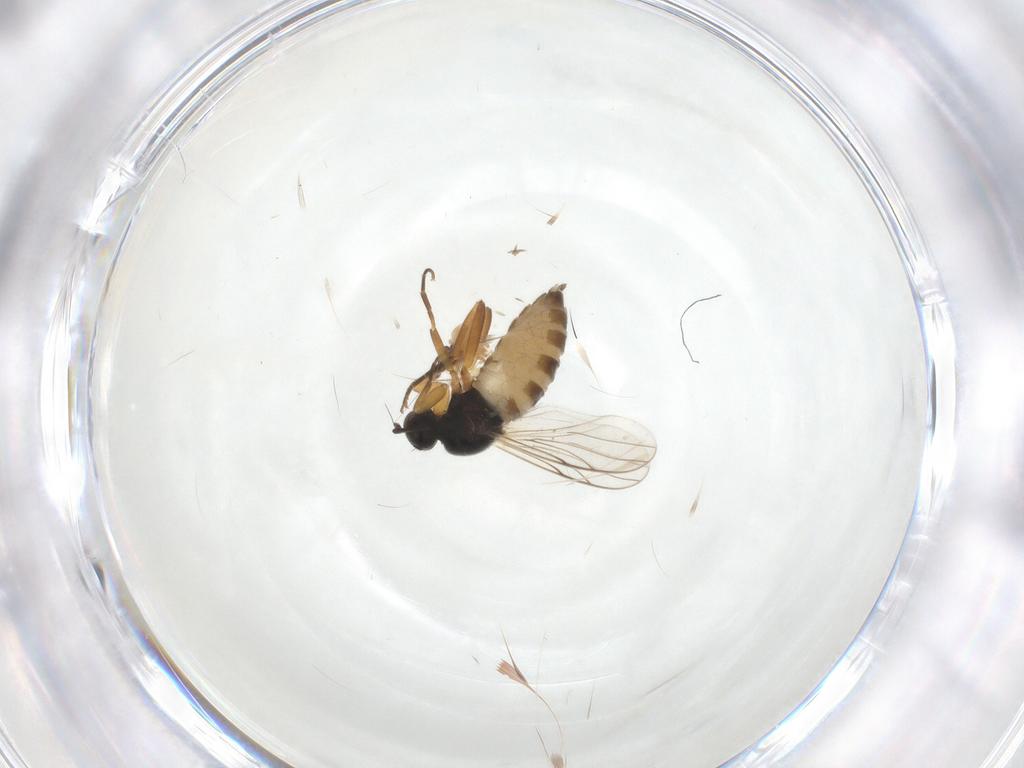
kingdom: Animalia
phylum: Arthropoda
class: Insecta
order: Diptera
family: Hybotidae
